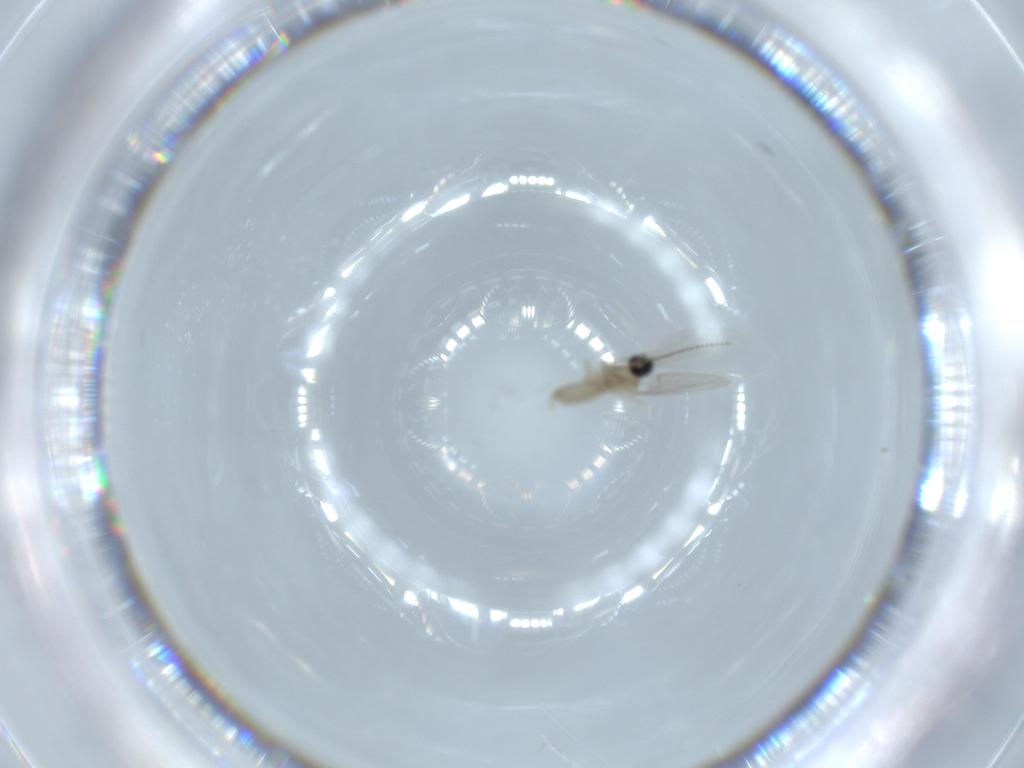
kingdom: Animalia
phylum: Arthropoda
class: Insecta
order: Diptera
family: Cecidomyiidae
